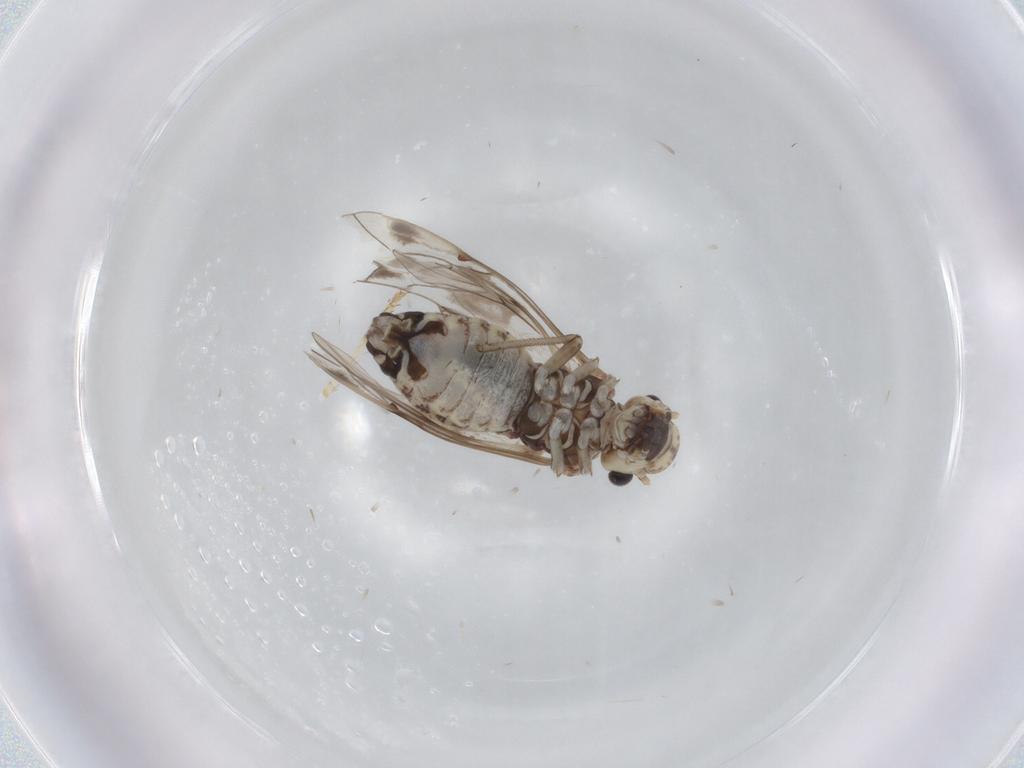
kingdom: Animalia
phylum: Arthropoda
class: Insecta
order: Psocodea
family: Psocidae
